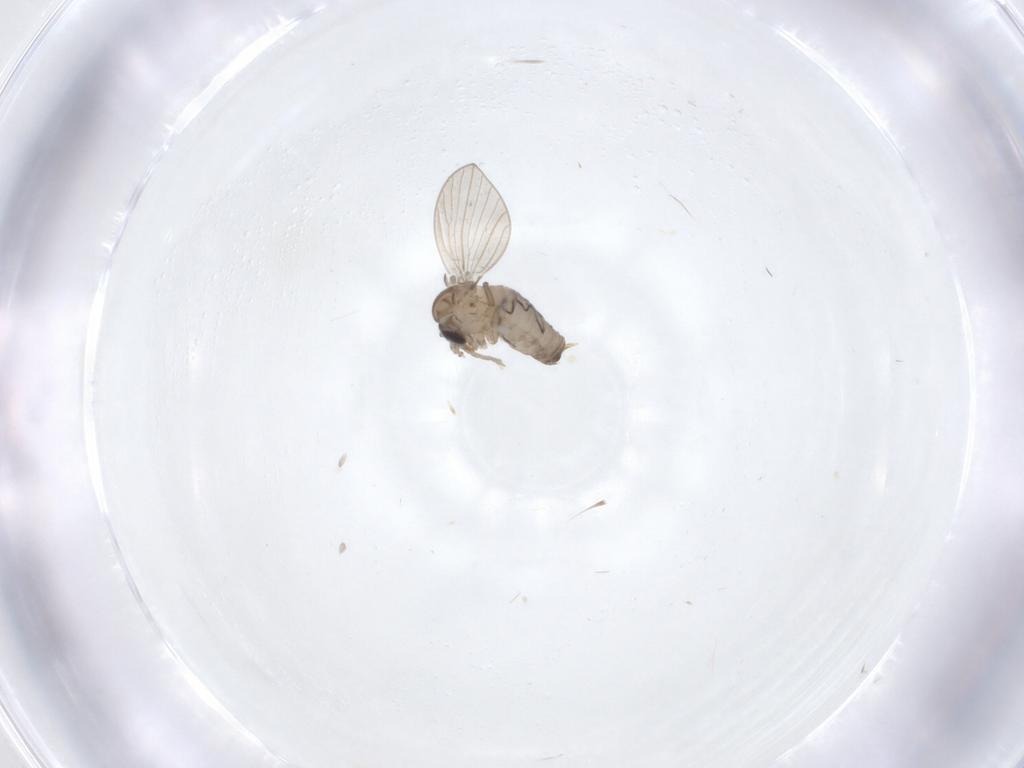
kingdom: Animalia
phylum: Arthropoda
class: Insecta
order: Diptera
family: Psychodidae
